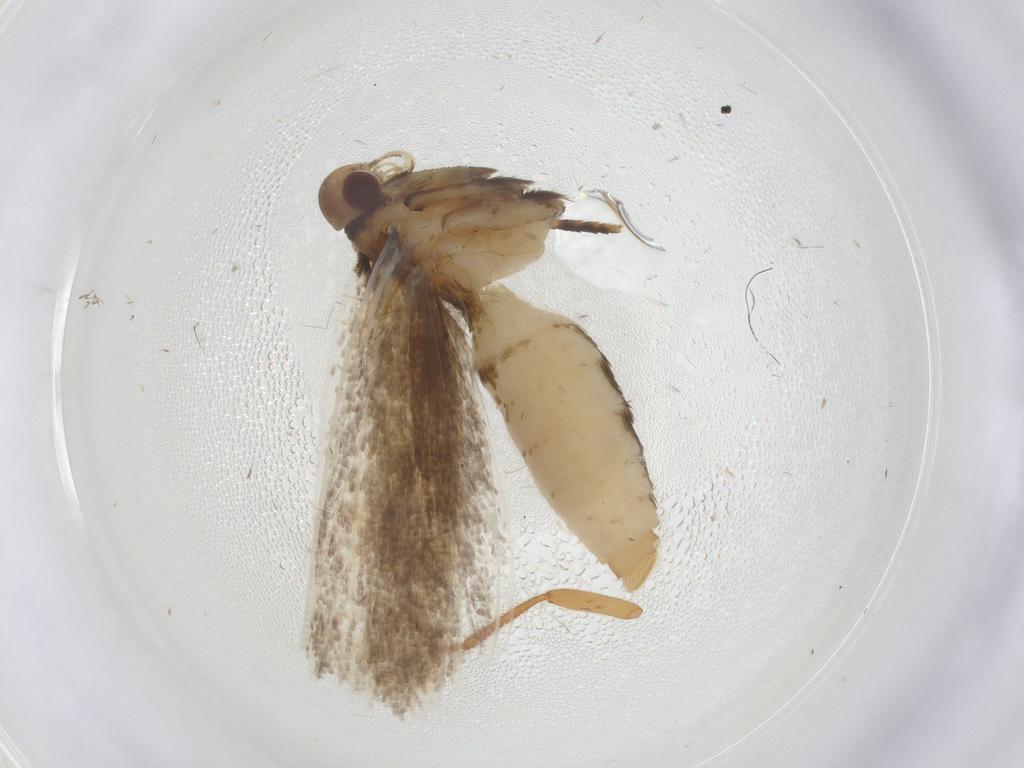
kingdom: Animalia
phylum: Arthropoda
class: Insecta
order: Lepidoptera
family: Crambidae
